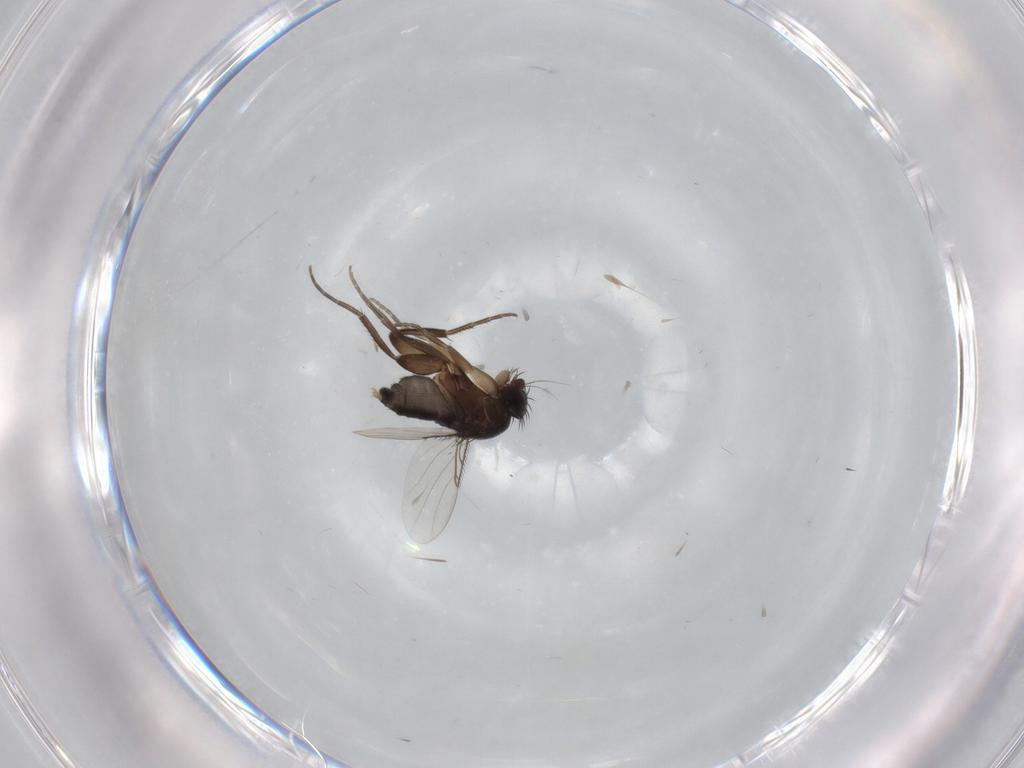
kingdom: Animalia
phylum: Arthropoda
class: Insecta
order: Diptera
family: Phoridae
